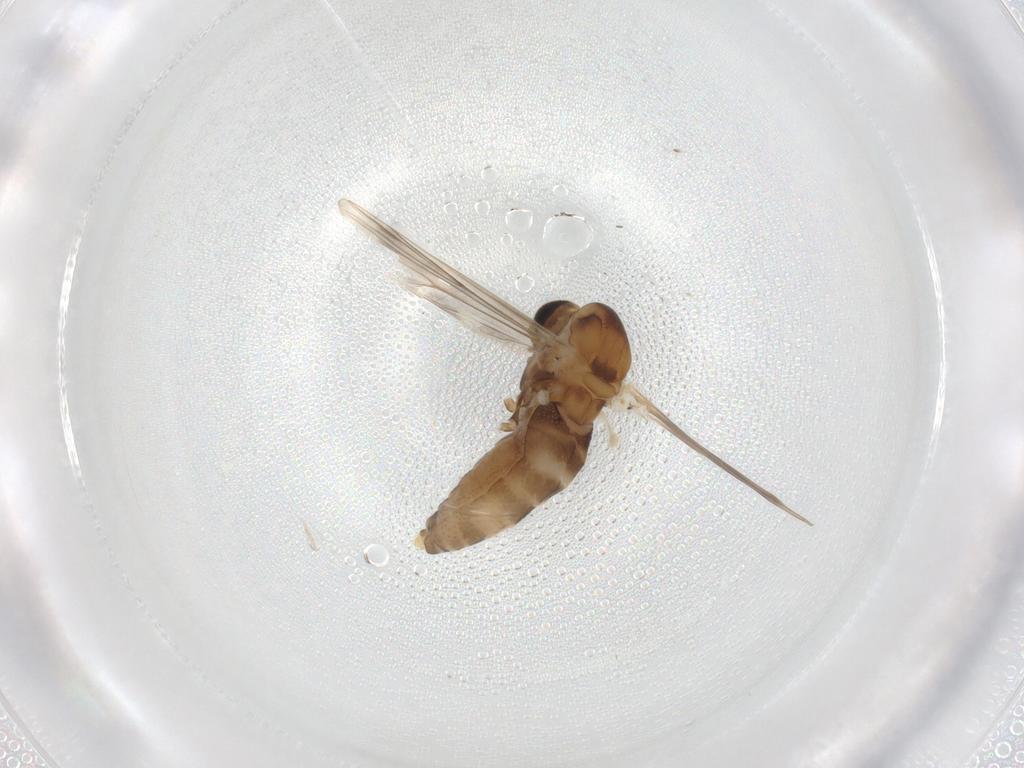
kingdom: Animalia
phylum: Arthropoda
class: Insecta
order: Diptera
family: Chironomidae
